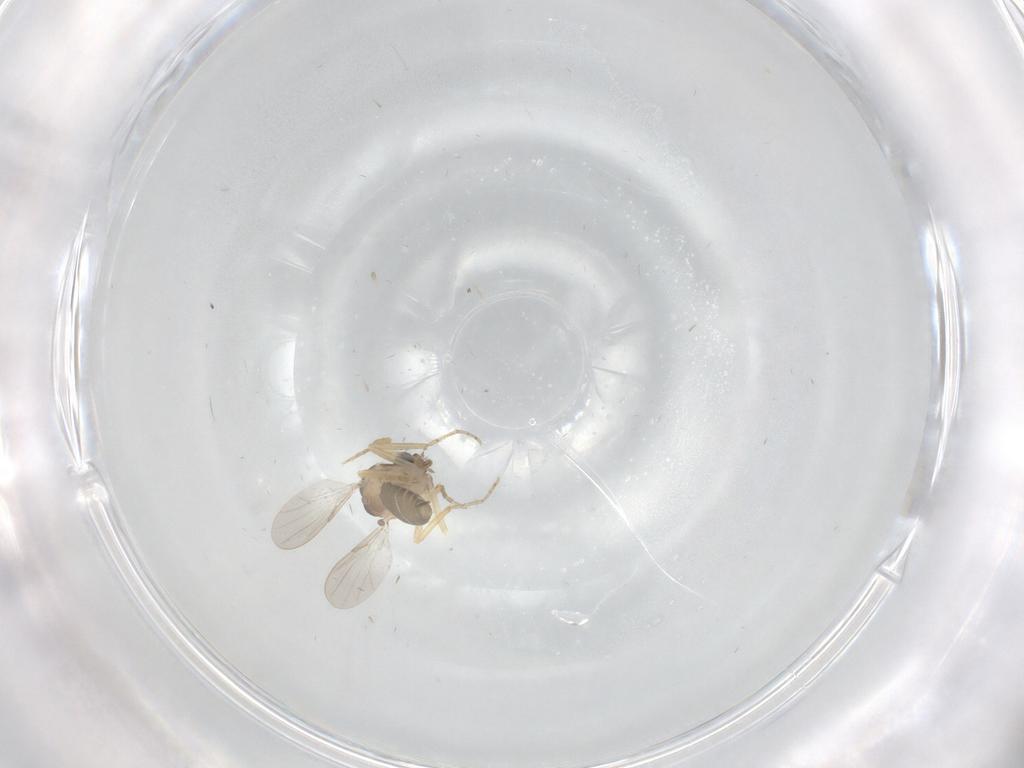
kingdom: Animalia
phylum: Arthropoda
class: Insecta
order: Diptera
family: Ceratopogonidae
